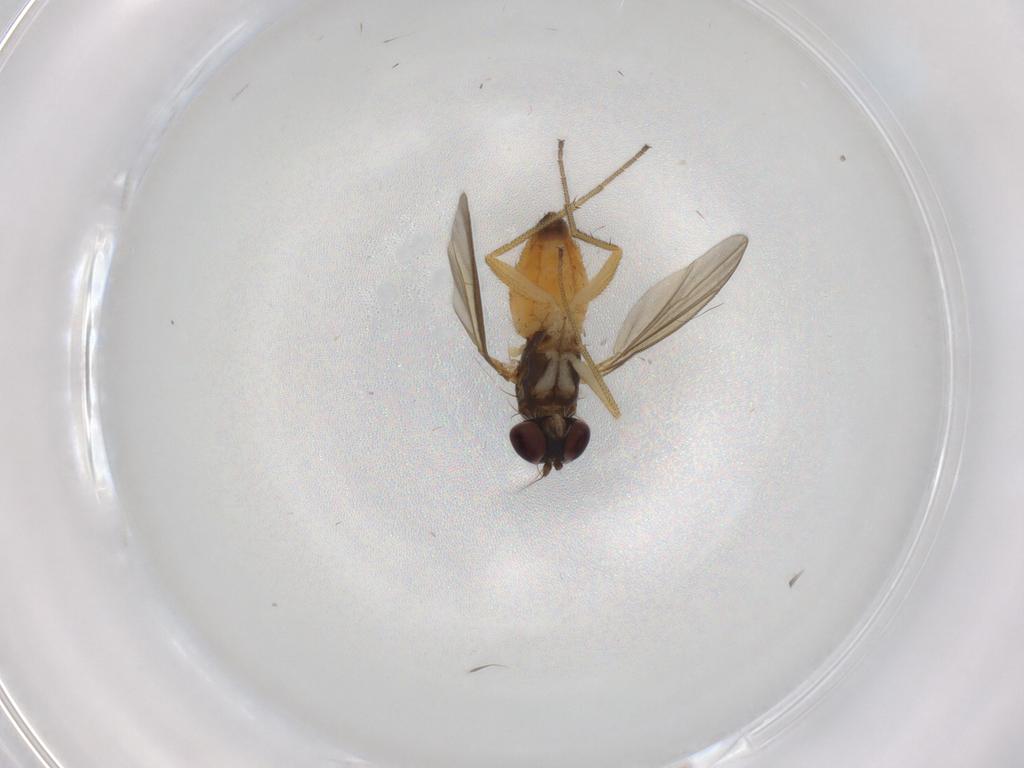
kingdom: Animalia
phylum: Arthropoda
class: Insecta
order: Diptera
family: Dolichopodidae
